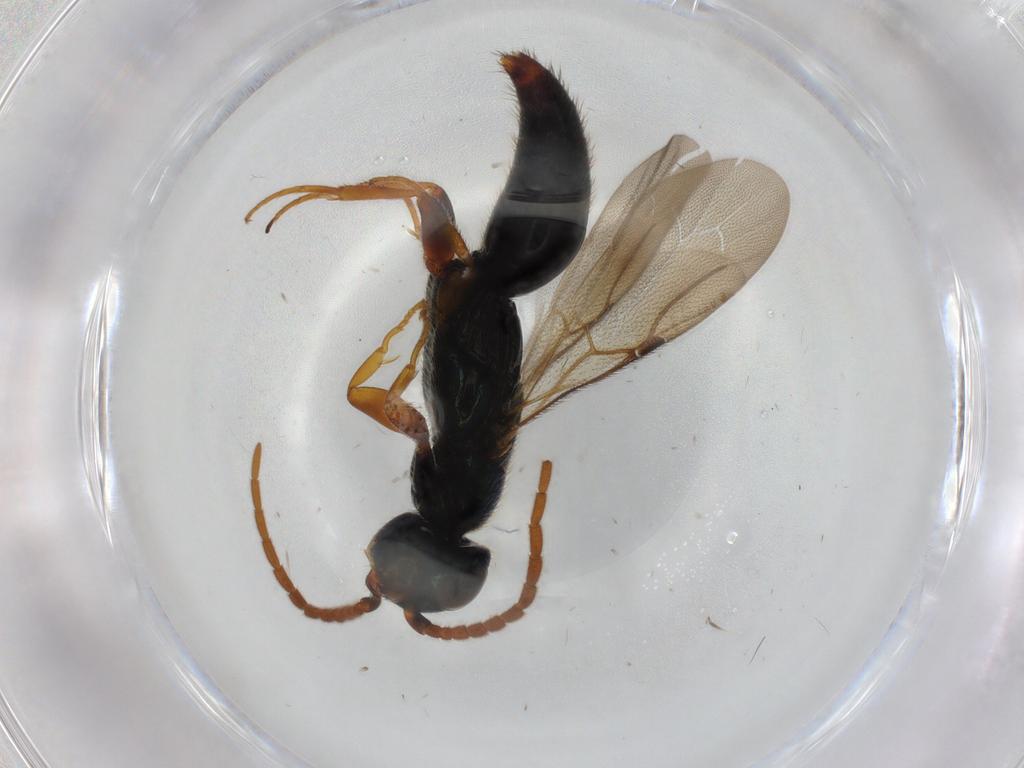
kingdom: Animalia
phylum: Arthropoda
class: Insecta
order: Hymenoptera
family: Bethylidae
